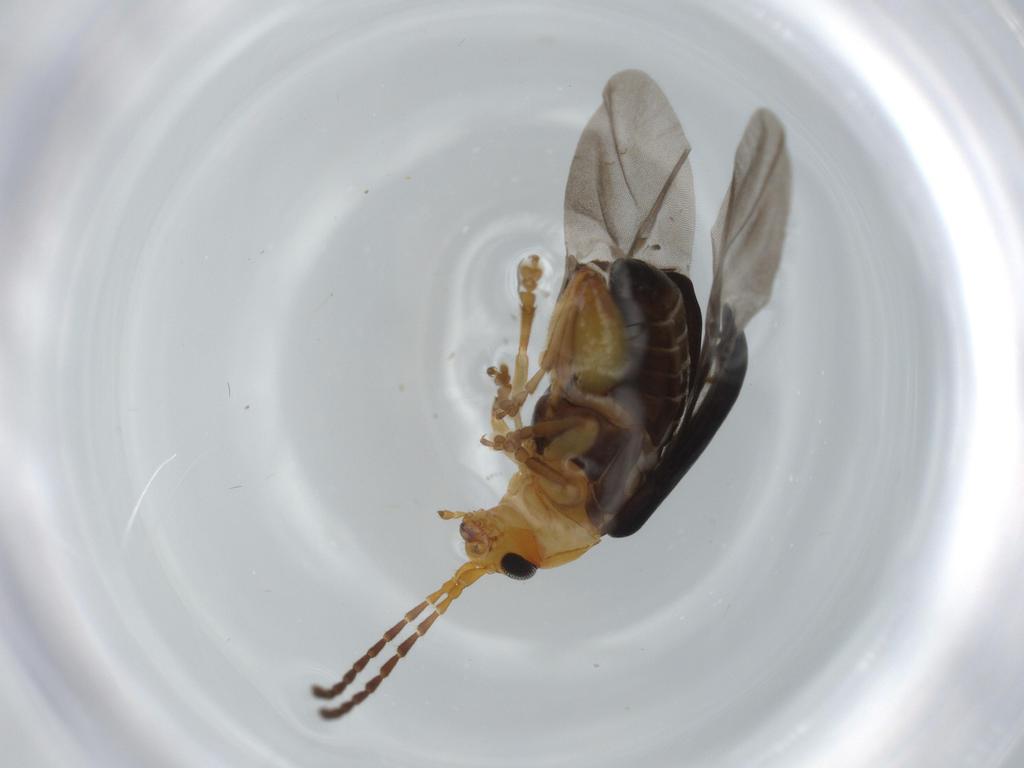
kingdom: Animalia
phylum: Arthropoda
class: Insecta
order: Coleoptera
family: Chrysomelidae
